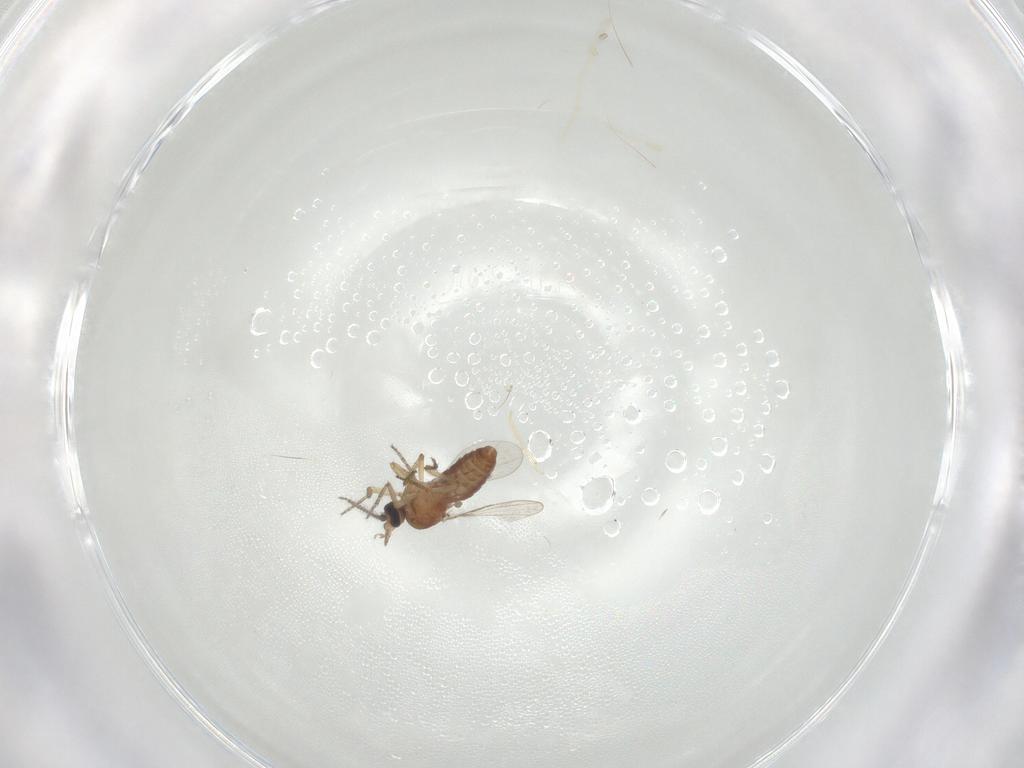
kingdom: Animalia
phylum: Arthropoda
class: Insecta
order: Diptera
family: Ceratopogonidae
